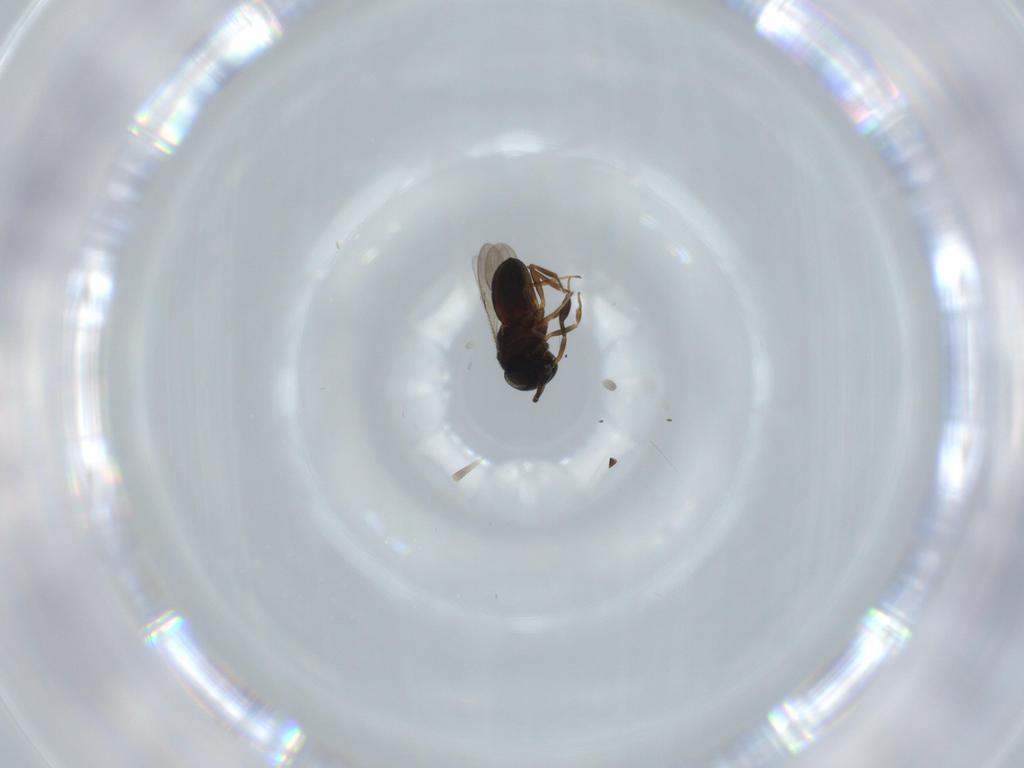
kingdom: Animalia
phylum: Arthropoda
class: Insecta
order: Hymenoptera
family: Scelionidae
